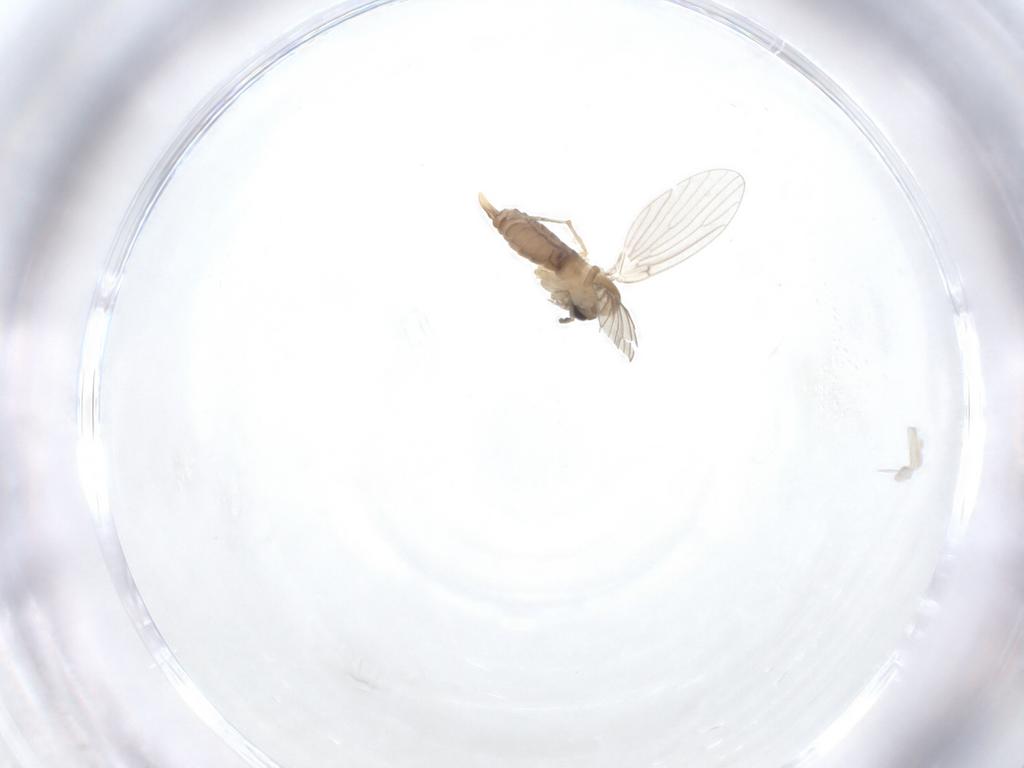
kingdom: Animalia
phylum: Arthropoda
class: Insecta
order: Diptera
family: Psychodidae
